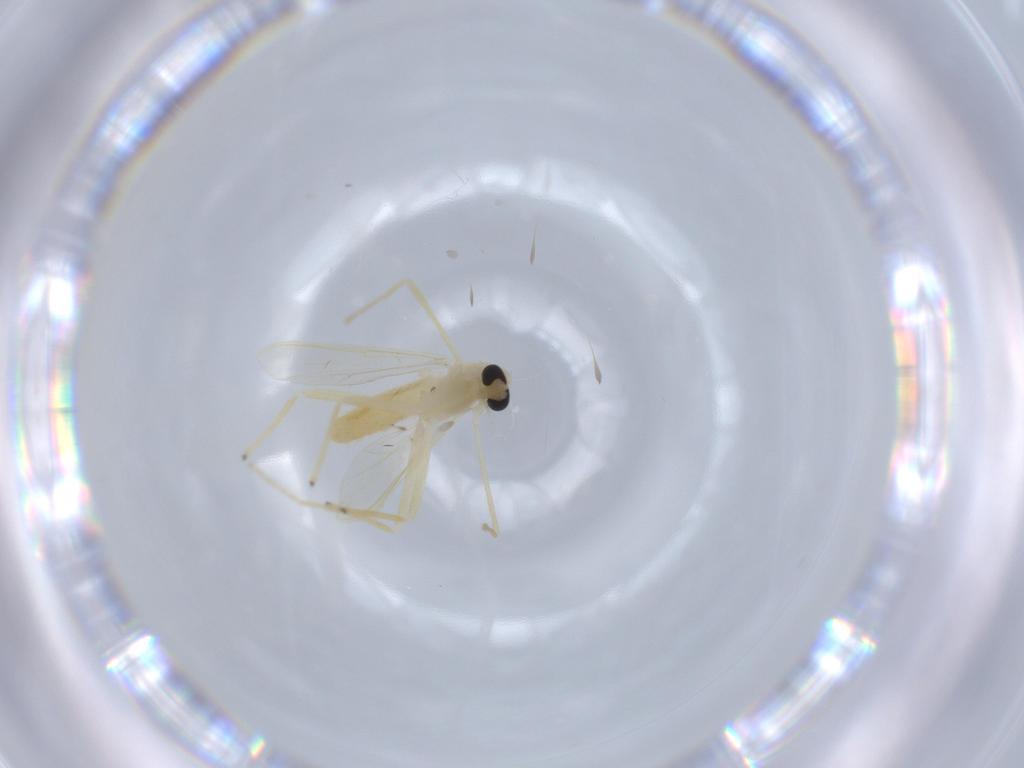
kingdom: Animalia
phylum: Arthropoda
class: Insecta
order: Diptera
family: Chironomidae
